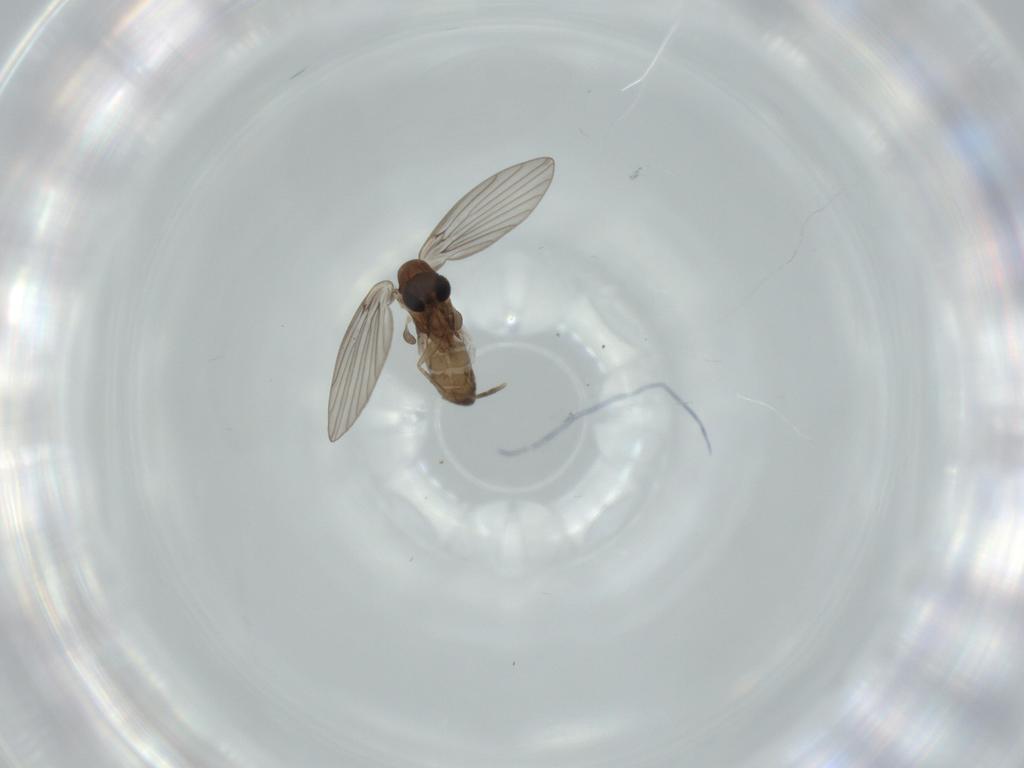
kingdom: Animalia
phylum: Arthropoda
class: Insecta
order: Diptera
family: Psychodidae
